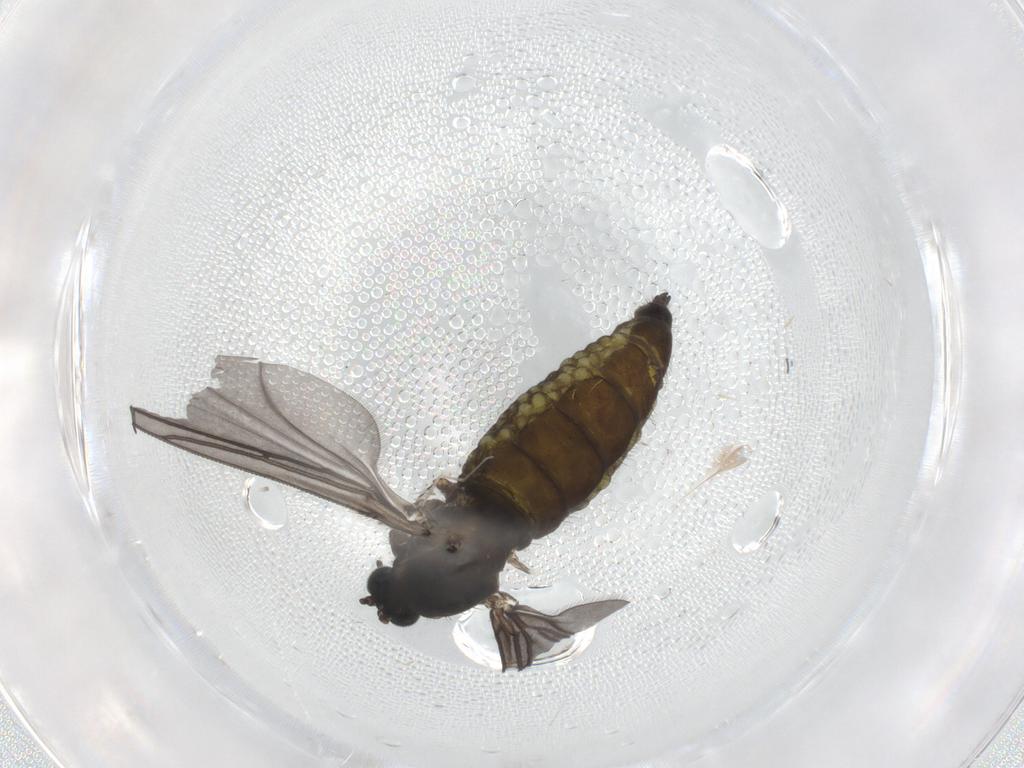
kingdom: Animalia
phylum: Arthropoda
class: Insecta
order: Diptera
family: Sciaridae
